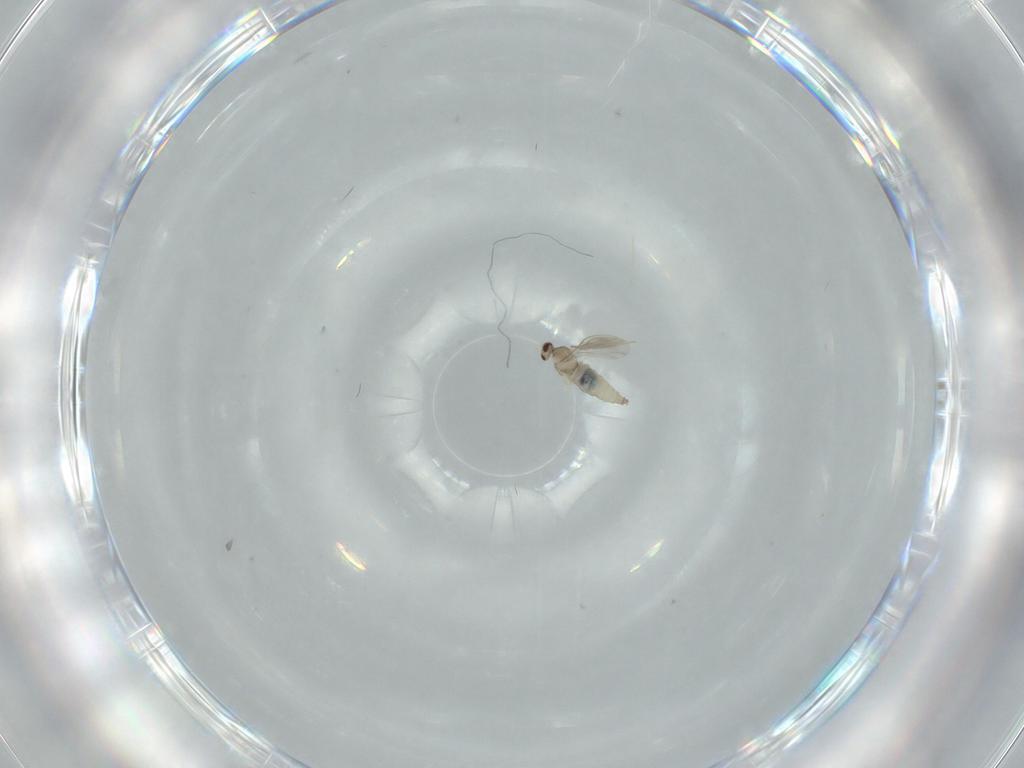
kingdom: Animalia
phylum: Arthropoda
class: Insecta
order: Diptera
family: Cecidomyiidae
